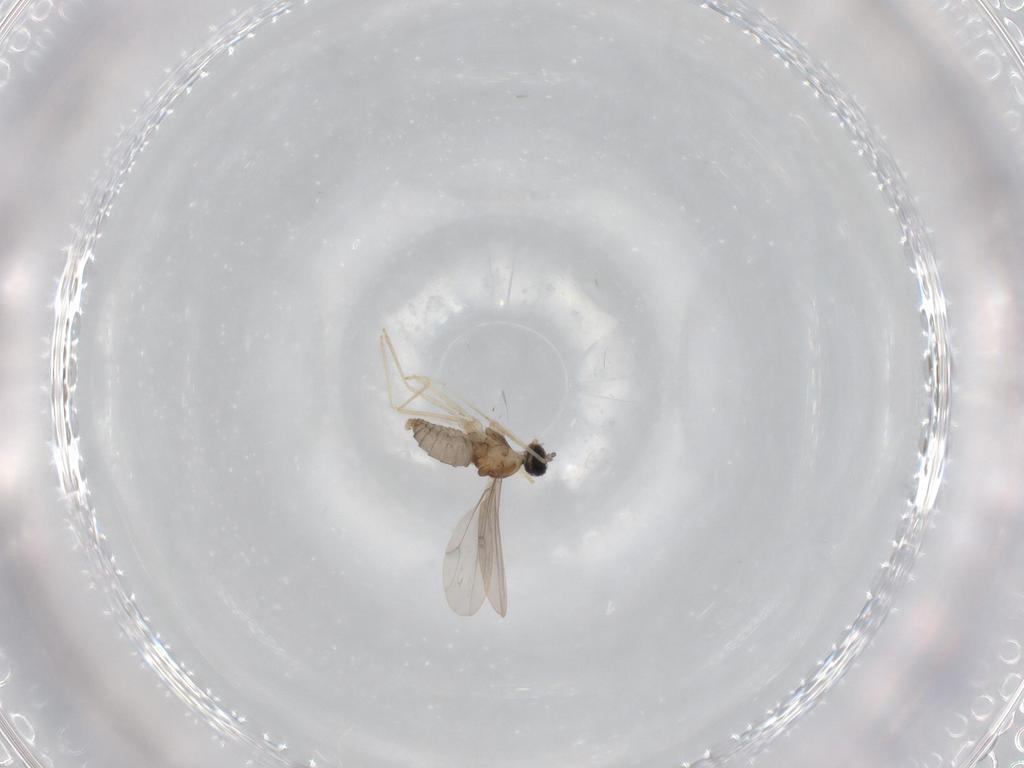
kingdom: Animalia
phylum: Arthropoda
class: Insecta
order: Diptera
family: Cecidomyiidae
